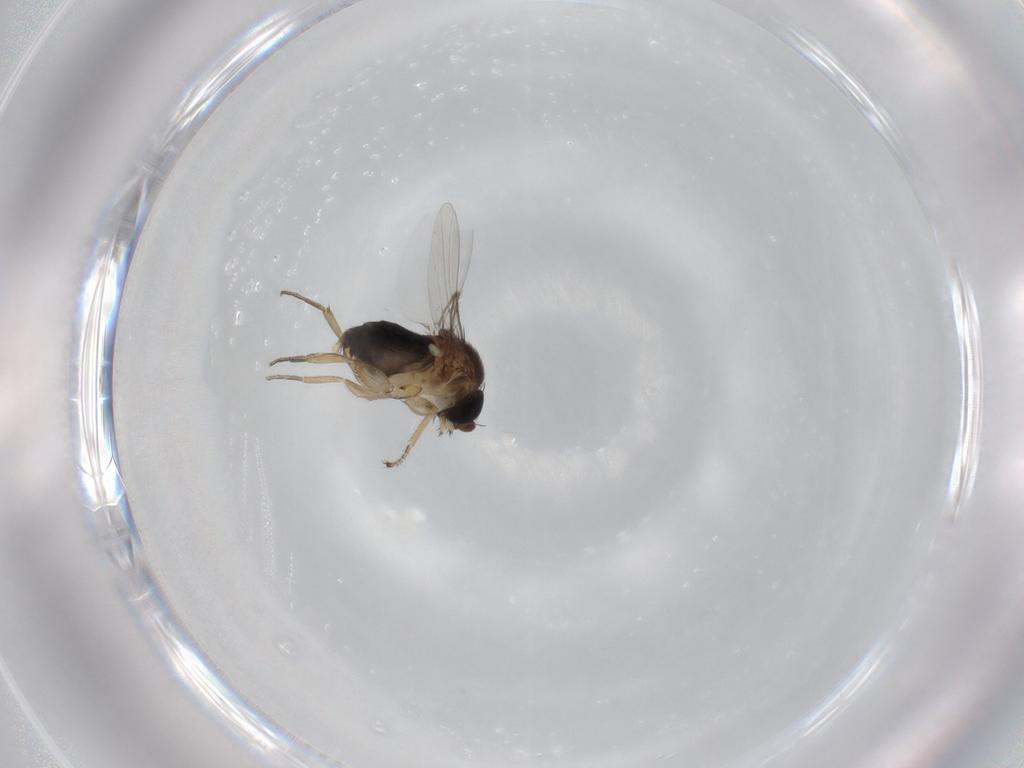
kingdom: Animalia
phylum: Arthropoda
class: Insecta
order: Diptera
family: Phoridae
